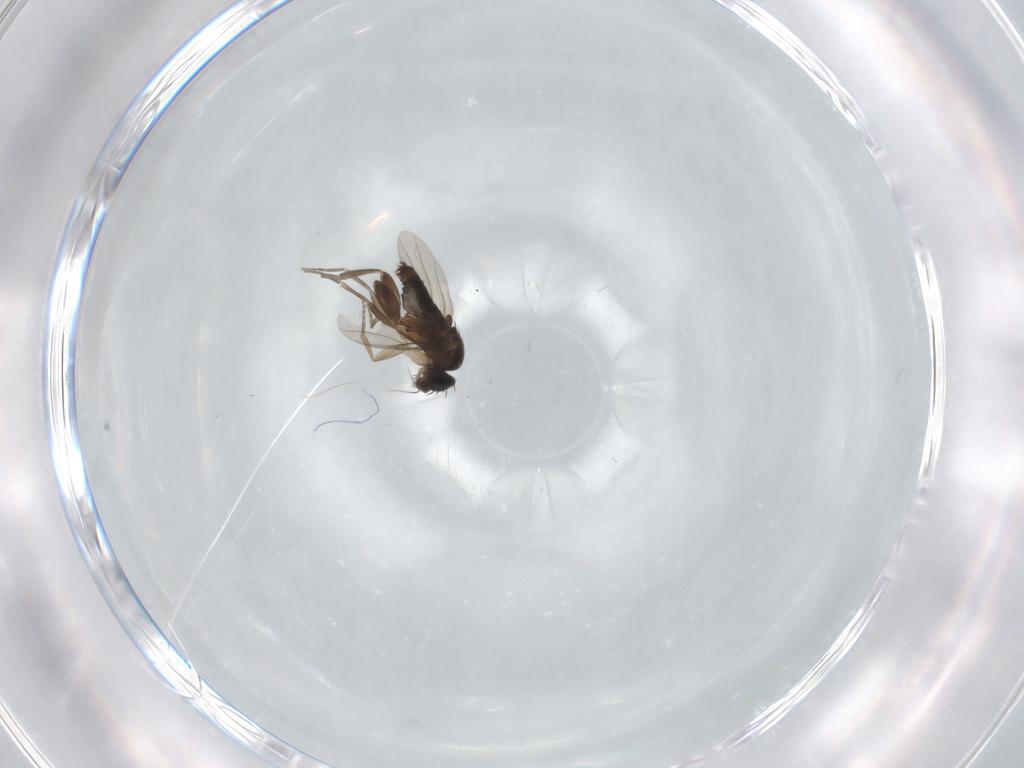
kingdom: Animalia
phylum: Arthropoda
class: Insecta
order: Diptera
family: Phoridae
